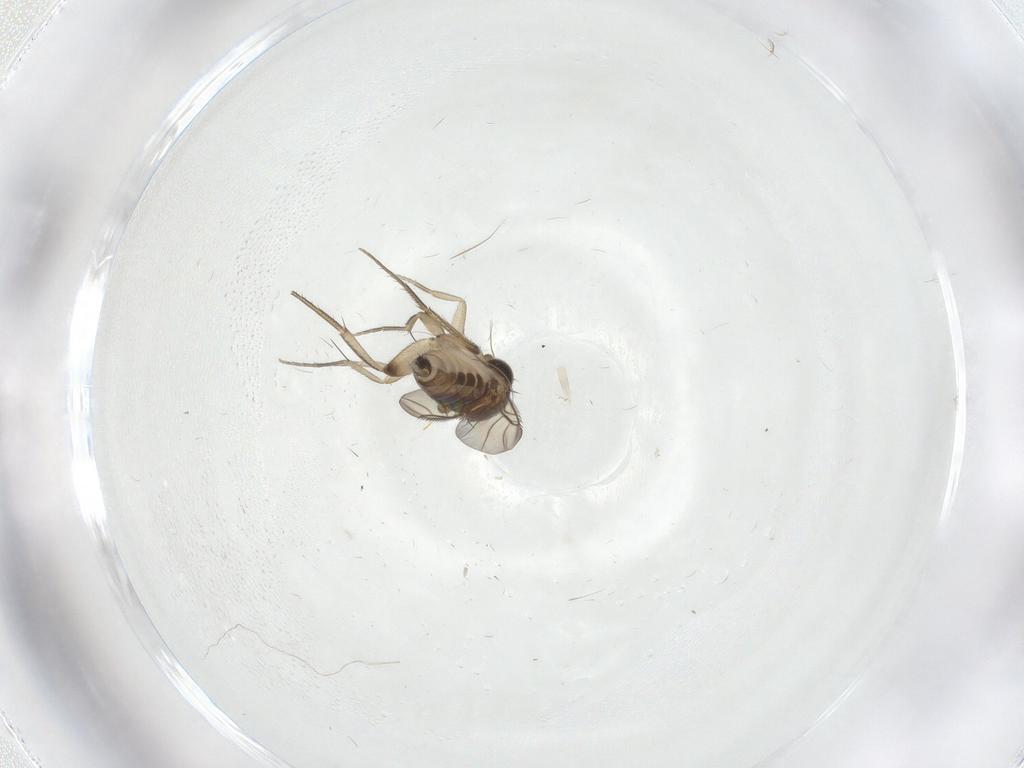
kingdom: Animalia
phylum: Arthropoda
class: Insecta
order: Diptera
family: Phoridae
